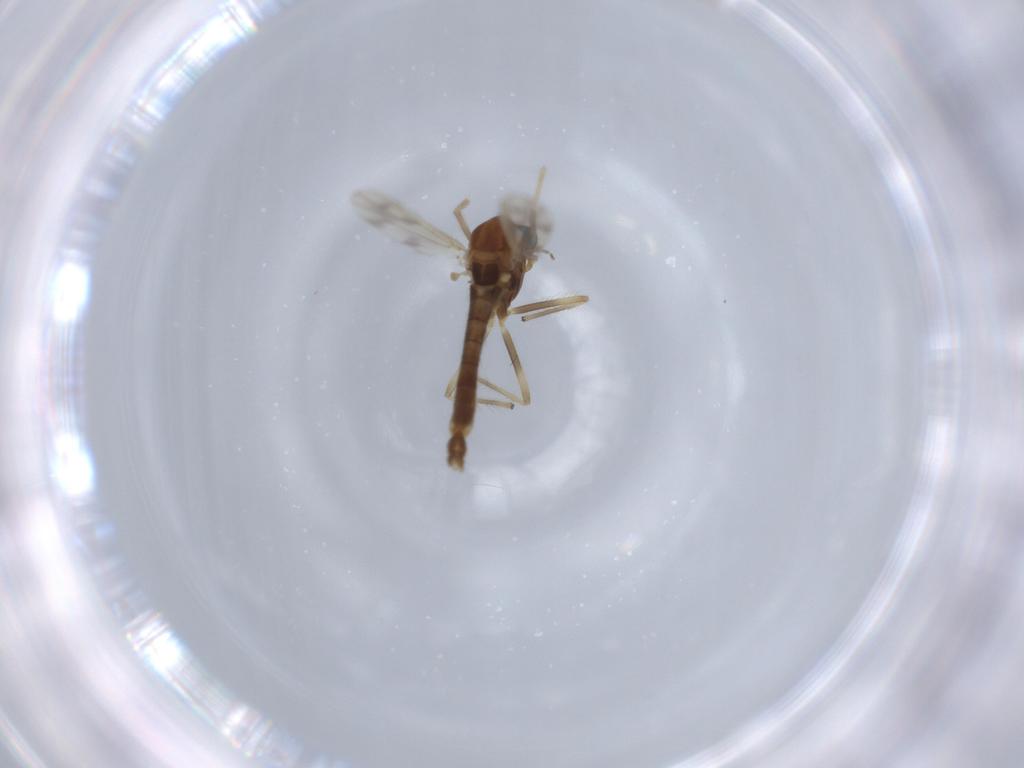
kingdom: Animalia
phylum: Arthropoda
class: Insecta
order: Diptera
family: Chironomidae
